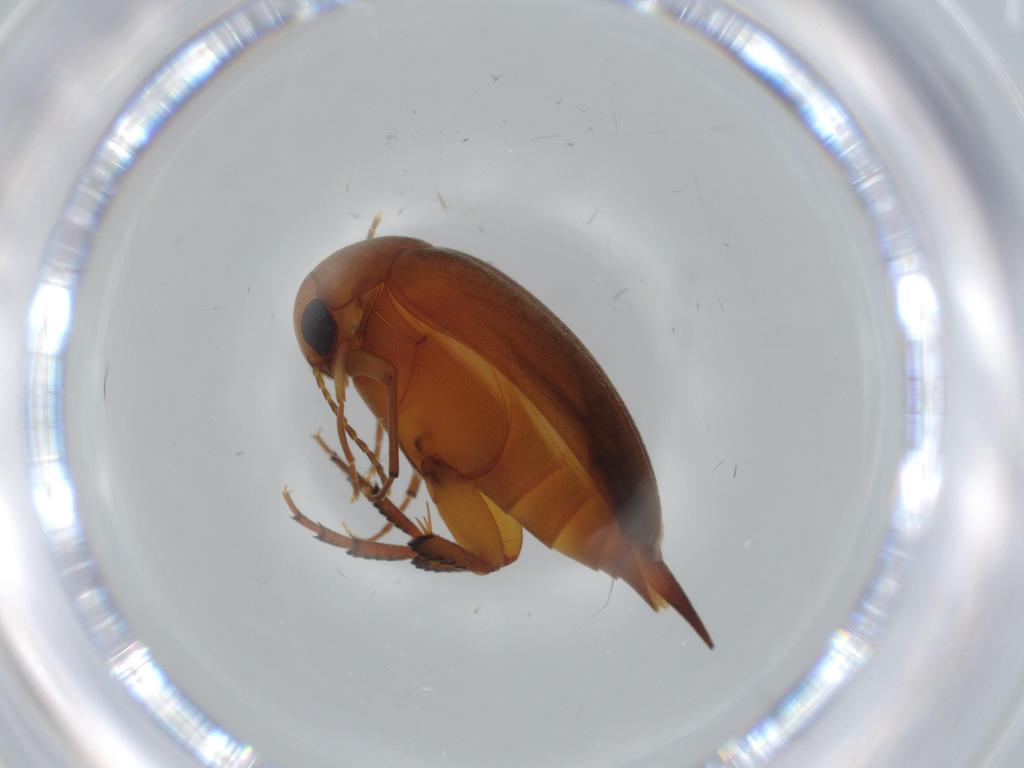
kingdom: Animalia
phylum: Arthropoda
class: Insecta
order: Coleoptera
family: Mordellidae
